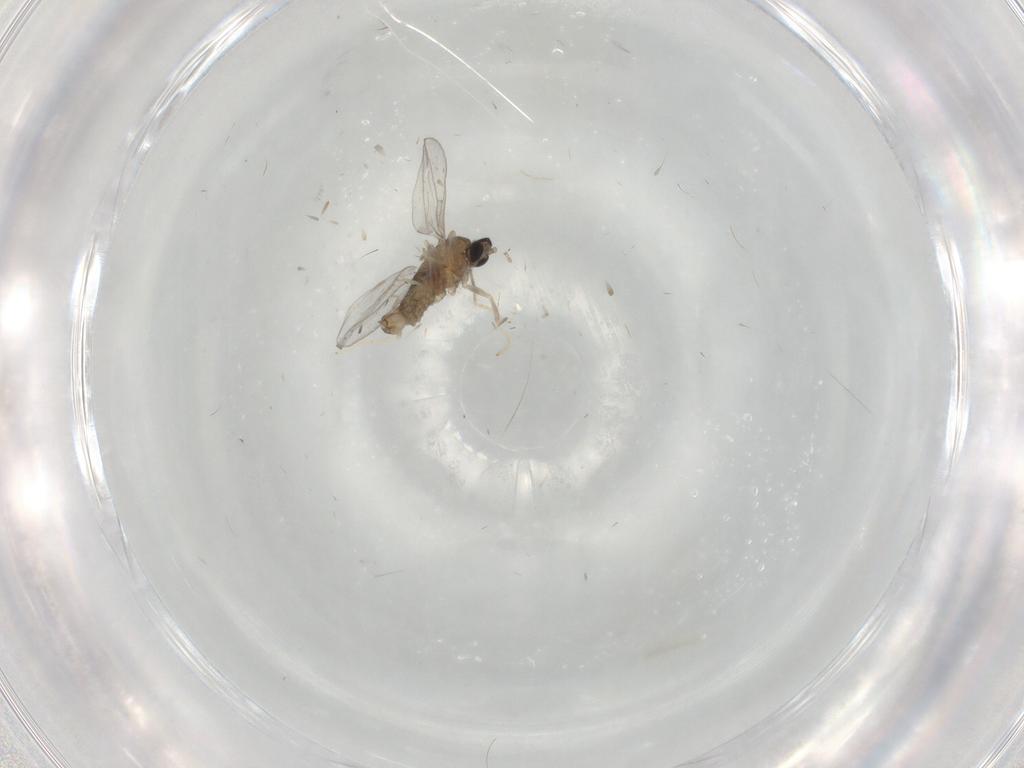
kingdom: Animalia
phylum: Arthropoda
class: Insecta
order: Diptera
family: Cecidomyiidae
